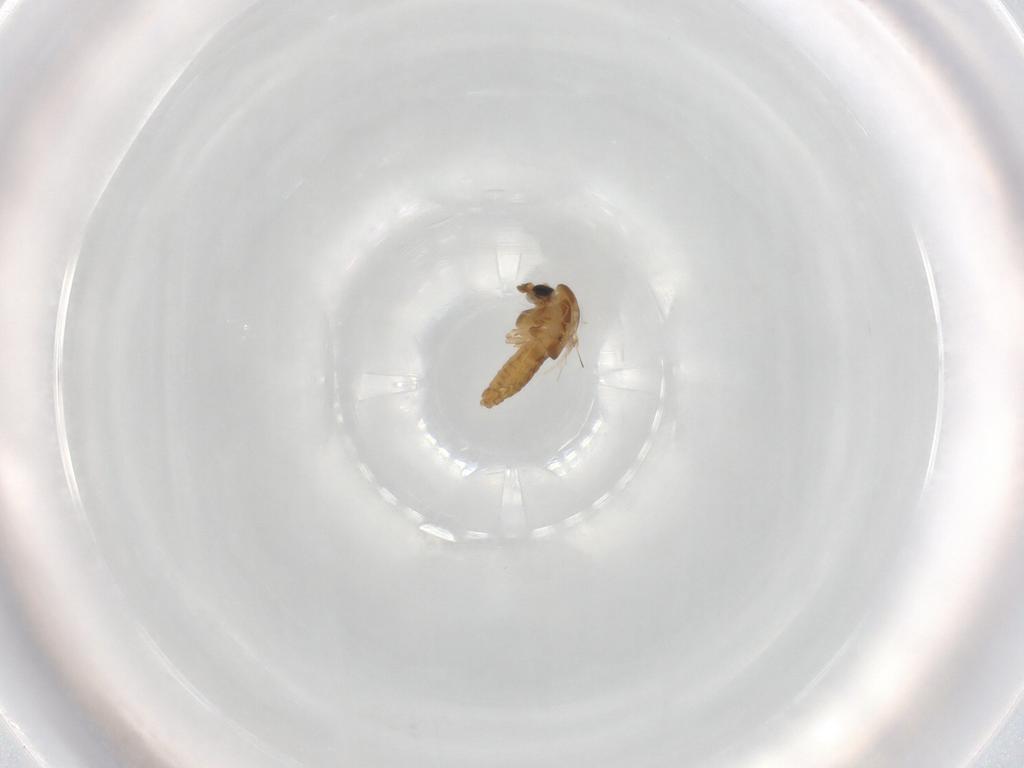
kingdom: Animalia
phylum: Arthropoda
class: Insecta
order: Diptera
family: Chironomidae
